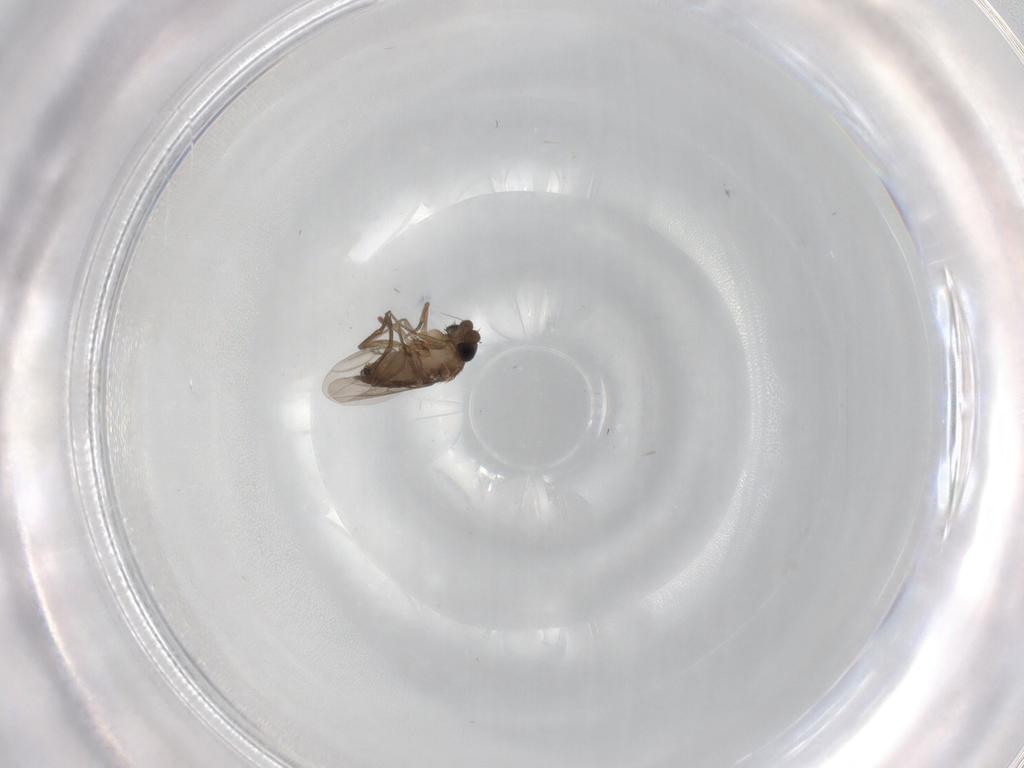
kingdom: Animalia
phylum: Arthropoda
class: Insecta
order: Diptera
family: Phoridae
